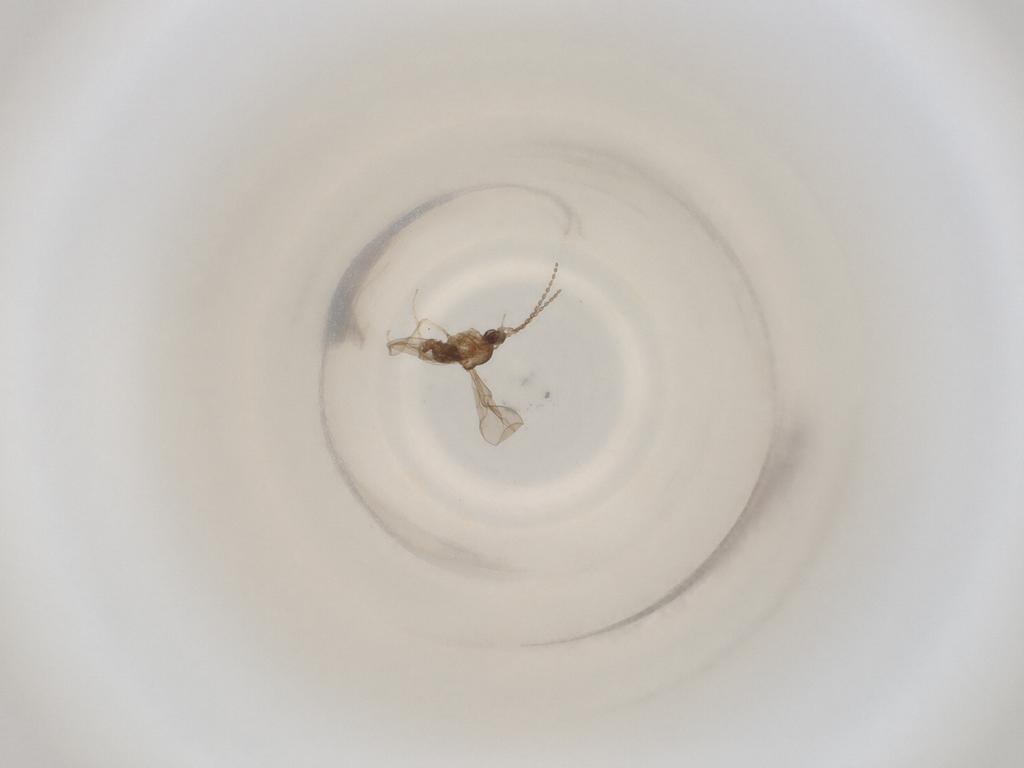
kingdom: Animalia
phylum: Arthropoda
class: Insecta
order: Diptera
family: Cecidomyiidae
